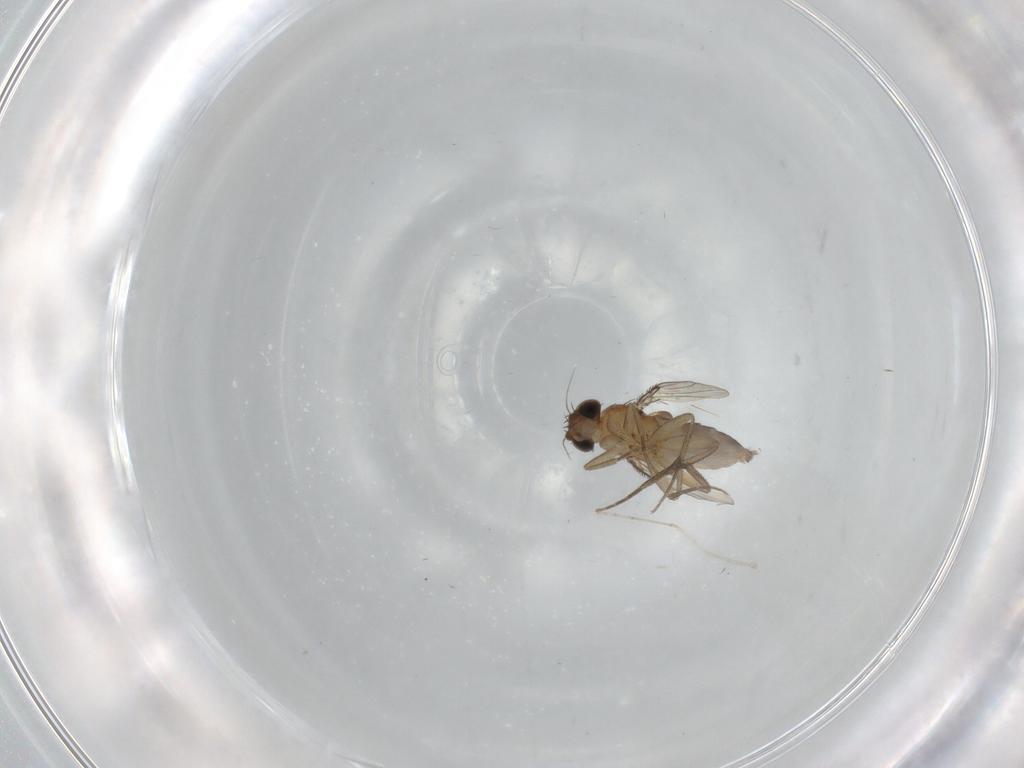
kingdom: Animalia
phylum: Arthropoda
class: Insecta
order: Diptera
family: Phoridae
